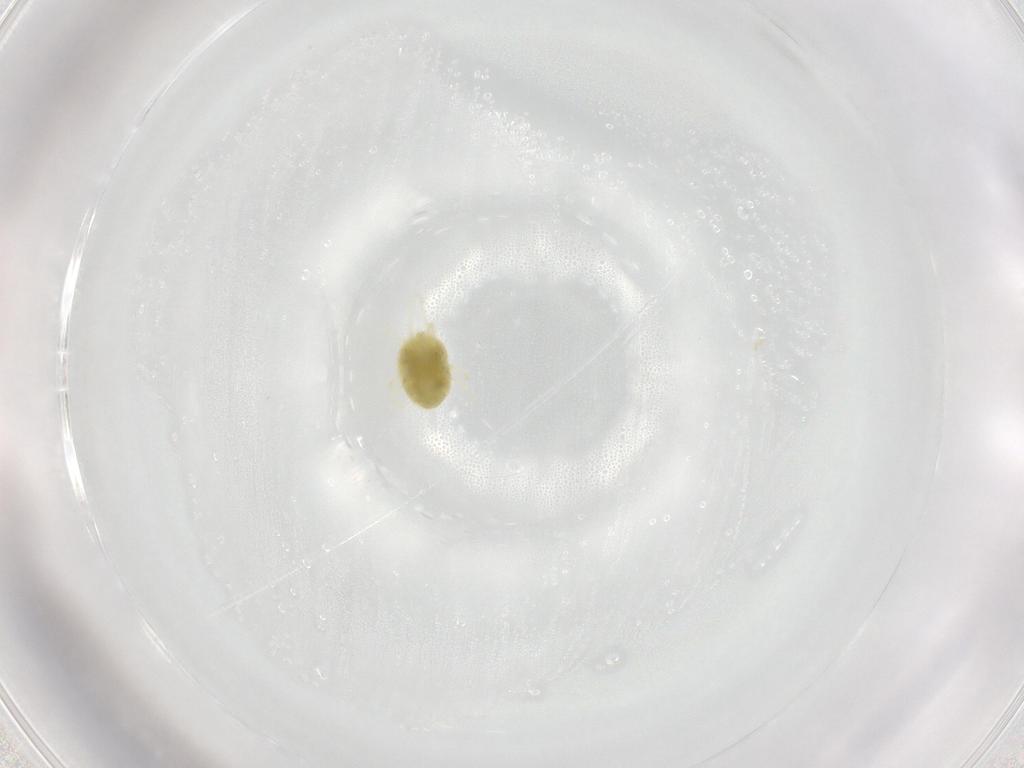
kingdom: Animalia
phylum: Arthropoda
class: Arachnida
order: Trombidiformes
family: Tetranychidae
